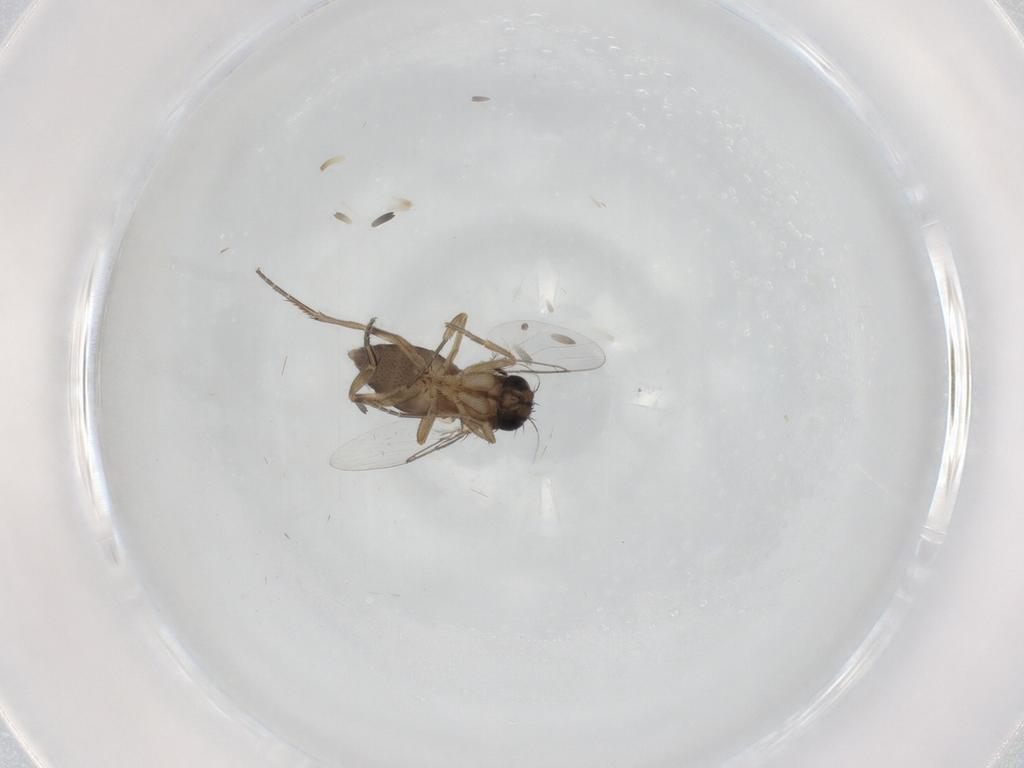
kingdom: Animalia
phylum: Arthropoda
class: Insecta
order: Diptera
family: Phoridae
